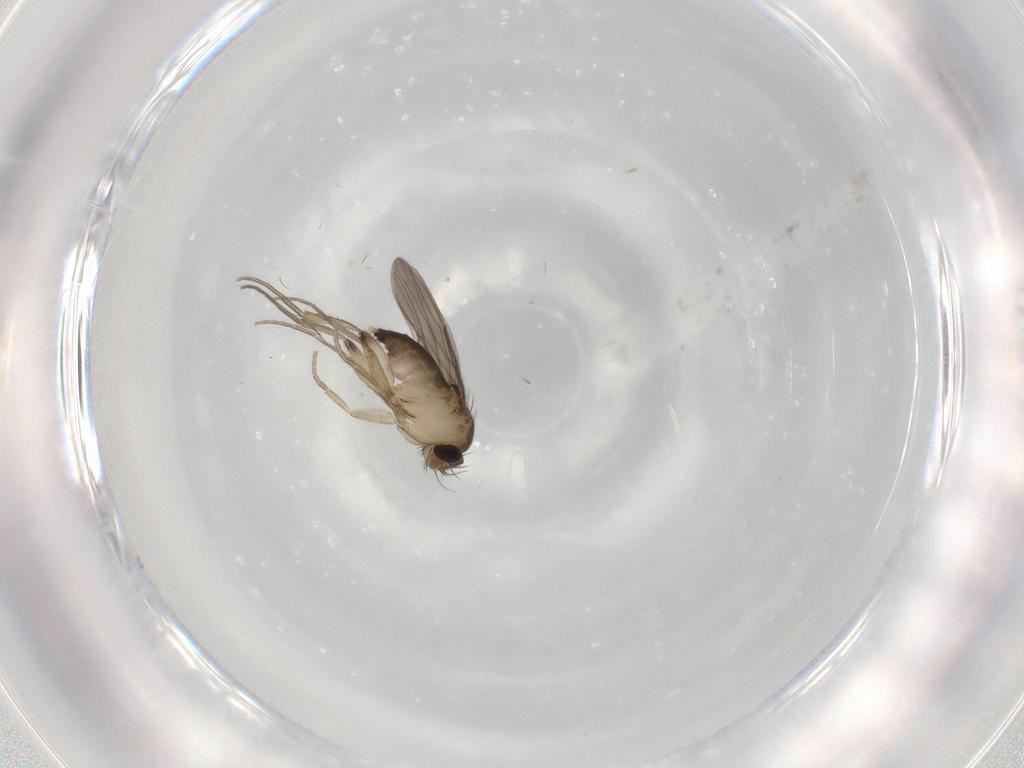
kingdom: Animalia
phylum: Arthropoda
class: Insecta
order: Diptera
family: Phoridae
